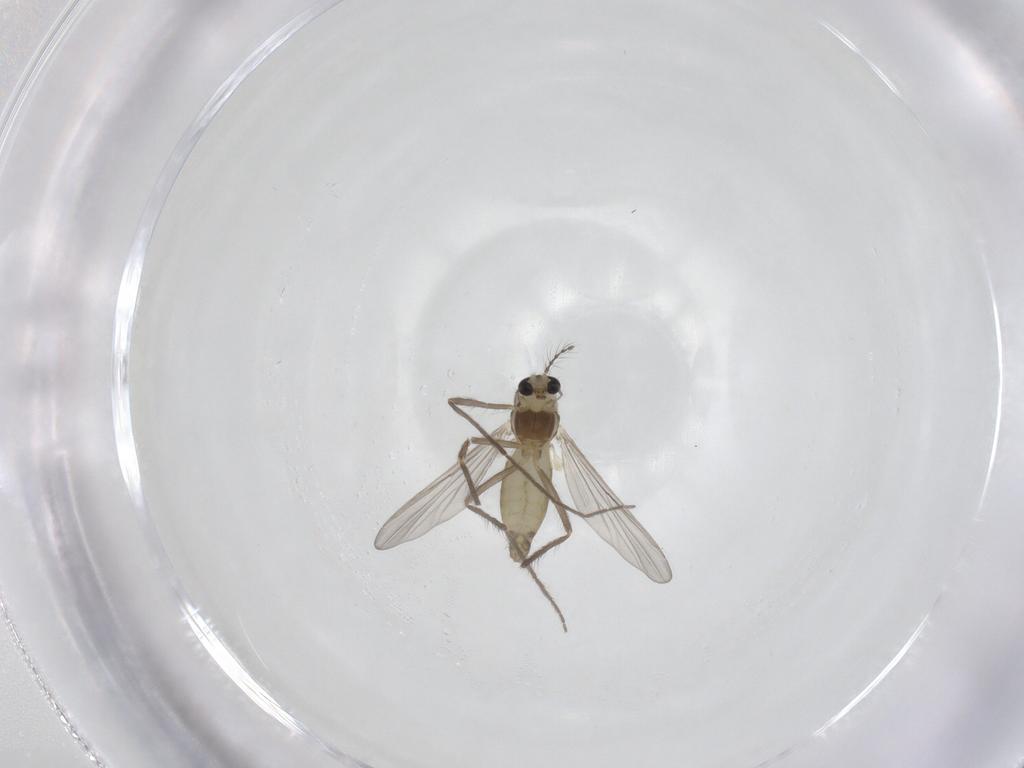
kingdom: Animalia
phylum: Arthropoda
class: Insecta
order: Diptera
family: Chironomidae
